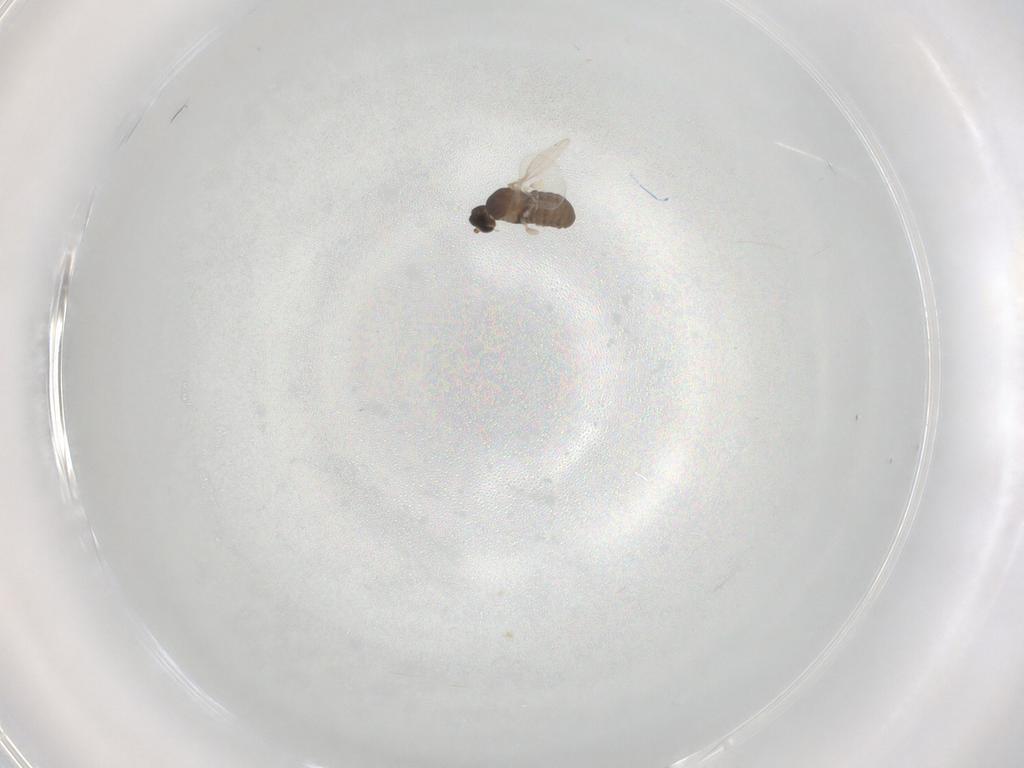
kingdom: Animalia
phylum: Arthropoda
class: Insecta
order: Diptera
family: Cecidomyiidae
